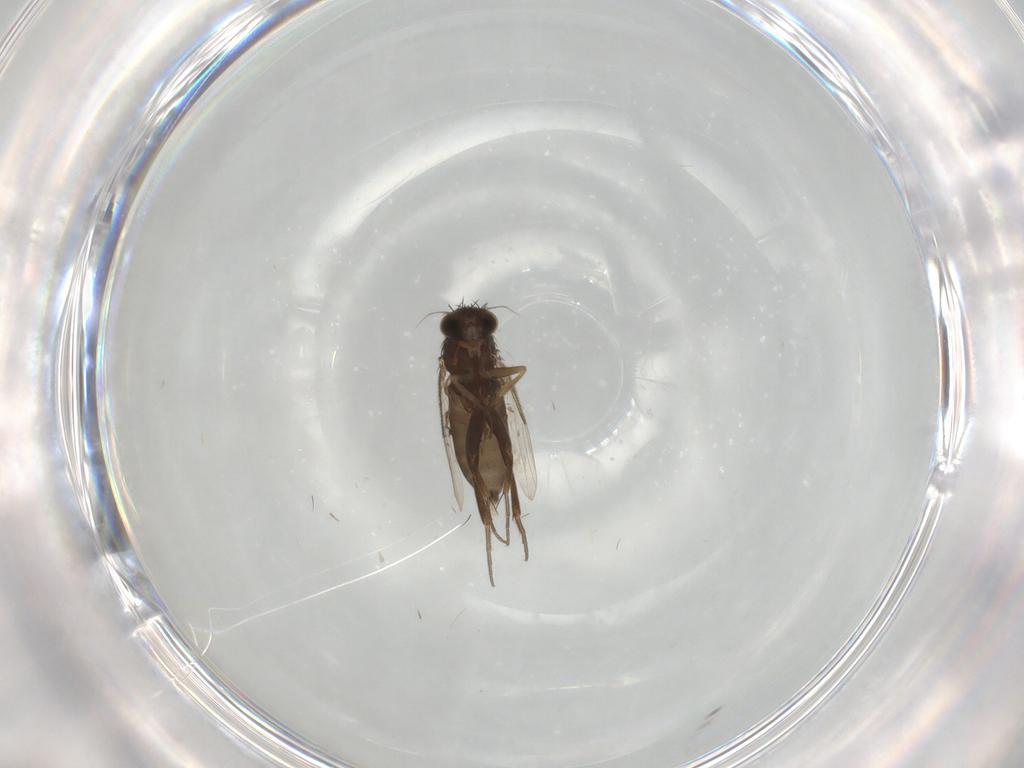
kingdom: Animalia
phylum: Arthropoda
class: Insecta
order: Diptera
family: Phoridae
